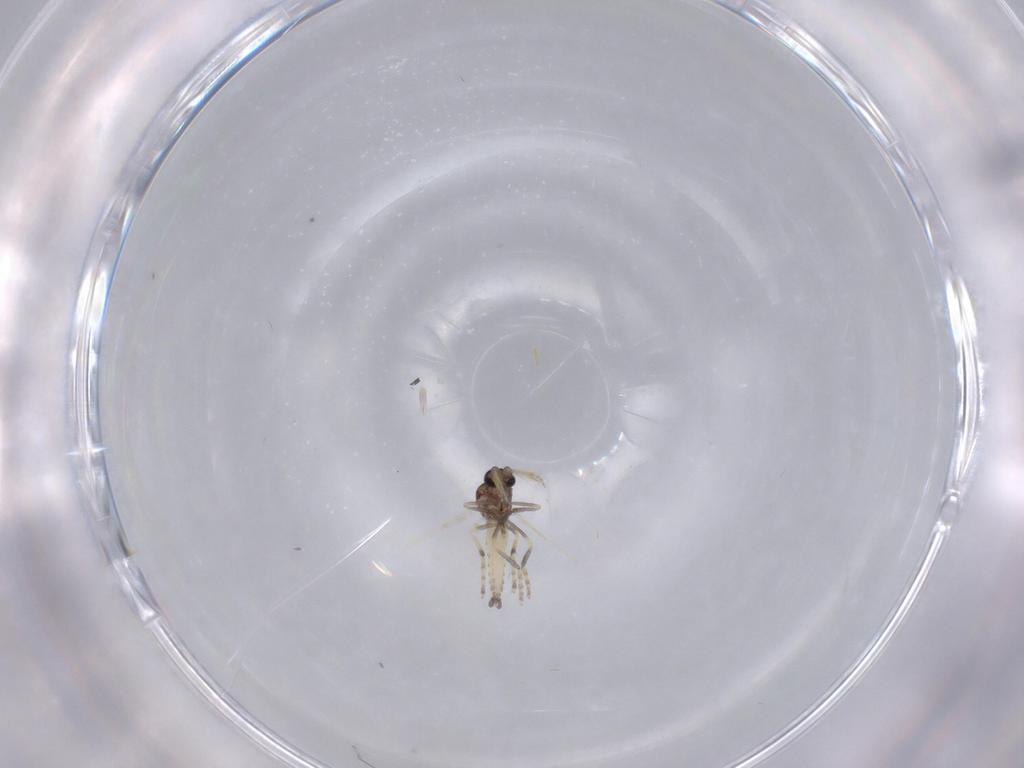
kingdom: Animalia
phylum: Arthropoda
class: Insecta
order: Diptera
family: Ceratopogonidae
